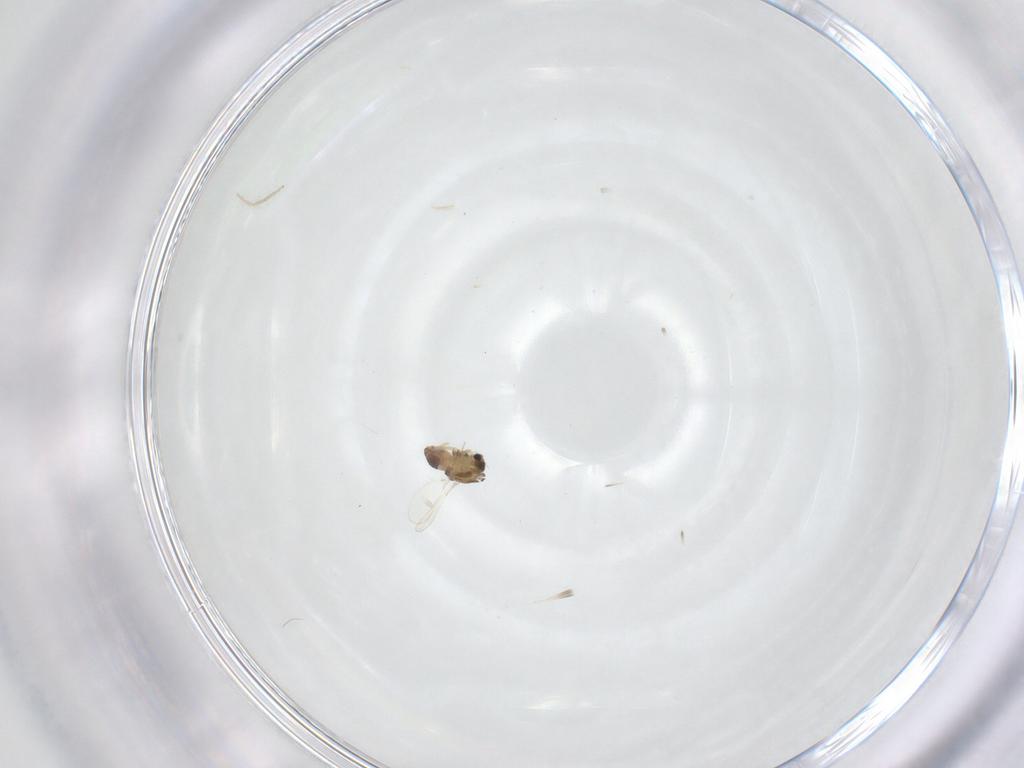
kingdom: Animalia
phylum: Arthropoda
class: Insecta
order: Diptera
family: Chironomidae
